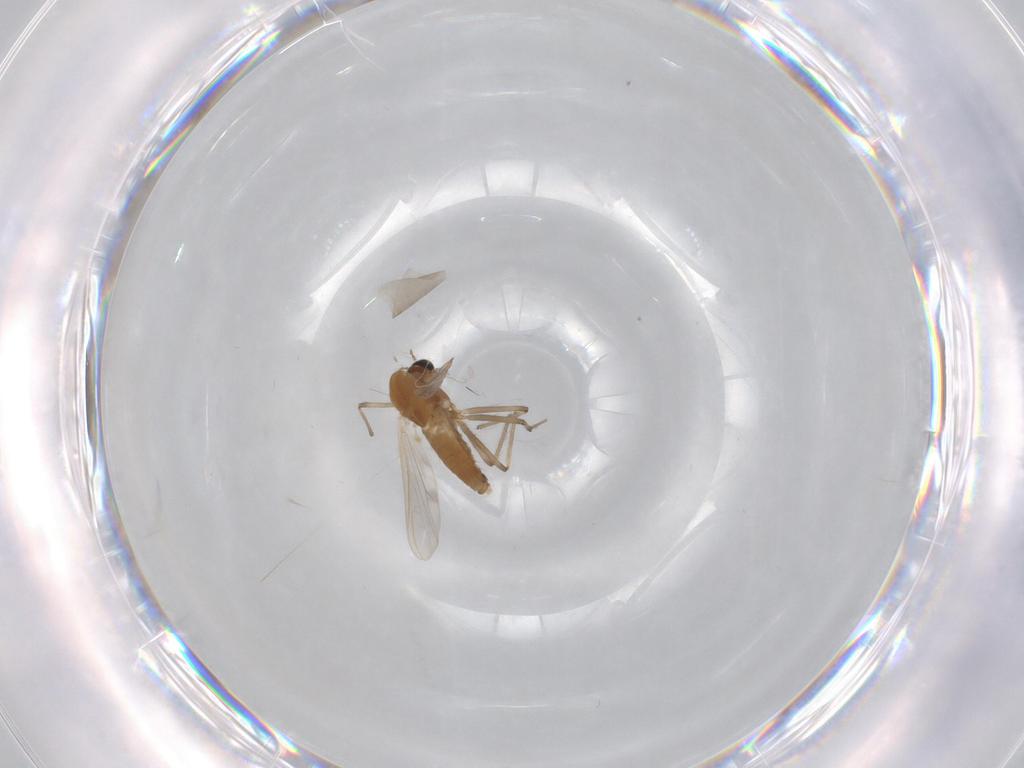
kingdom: Animalia
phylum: Arthropoda
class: Insecta
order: Diptera
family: Chironomidae
